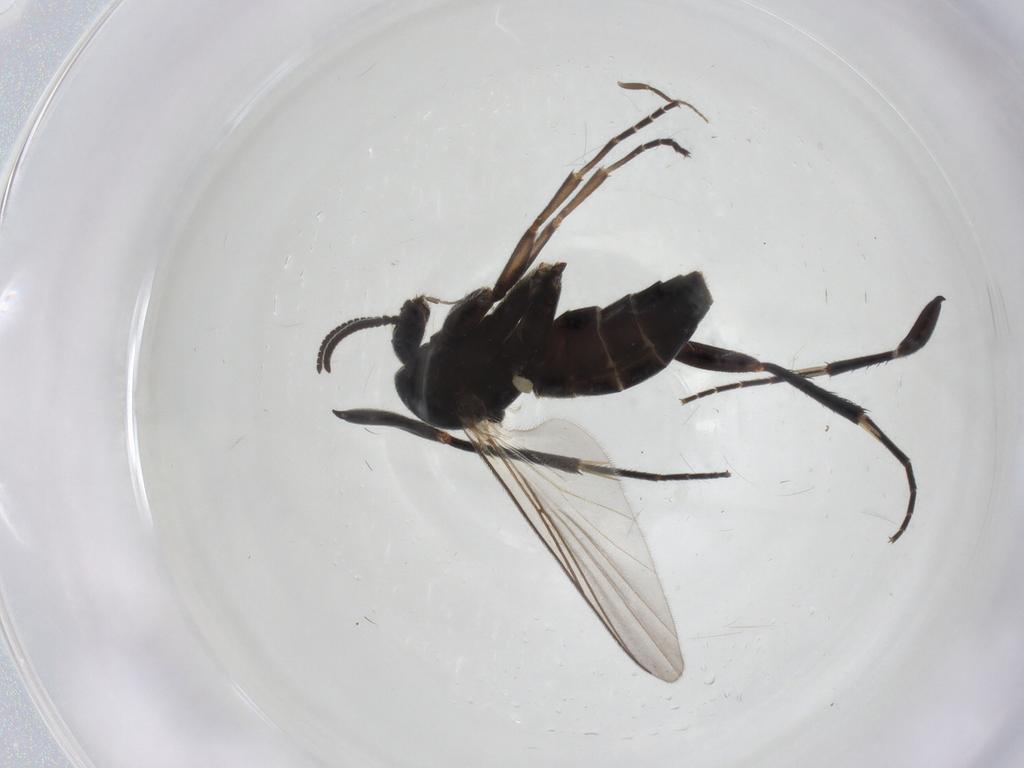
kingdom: Animalia
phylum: Arthropoda
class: Insecta
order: Diptera
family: Mycetophilidae
